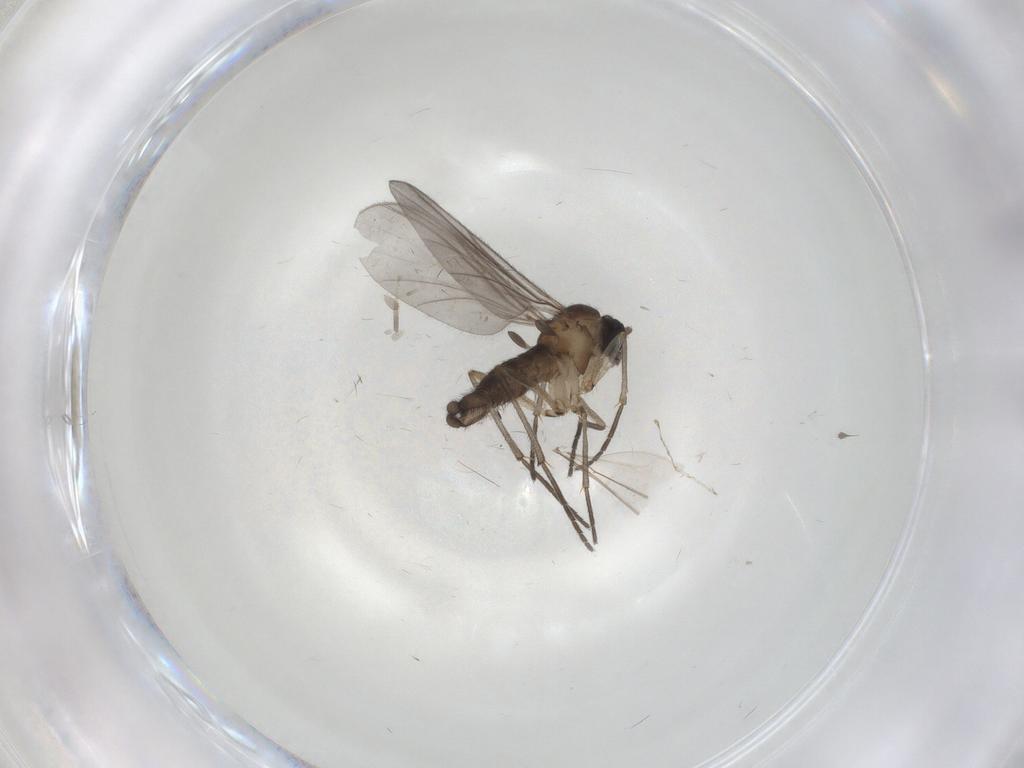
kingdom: Animalia
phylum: Arthropoda
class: Insecta
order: Diptera
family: Cecidomyiidae
